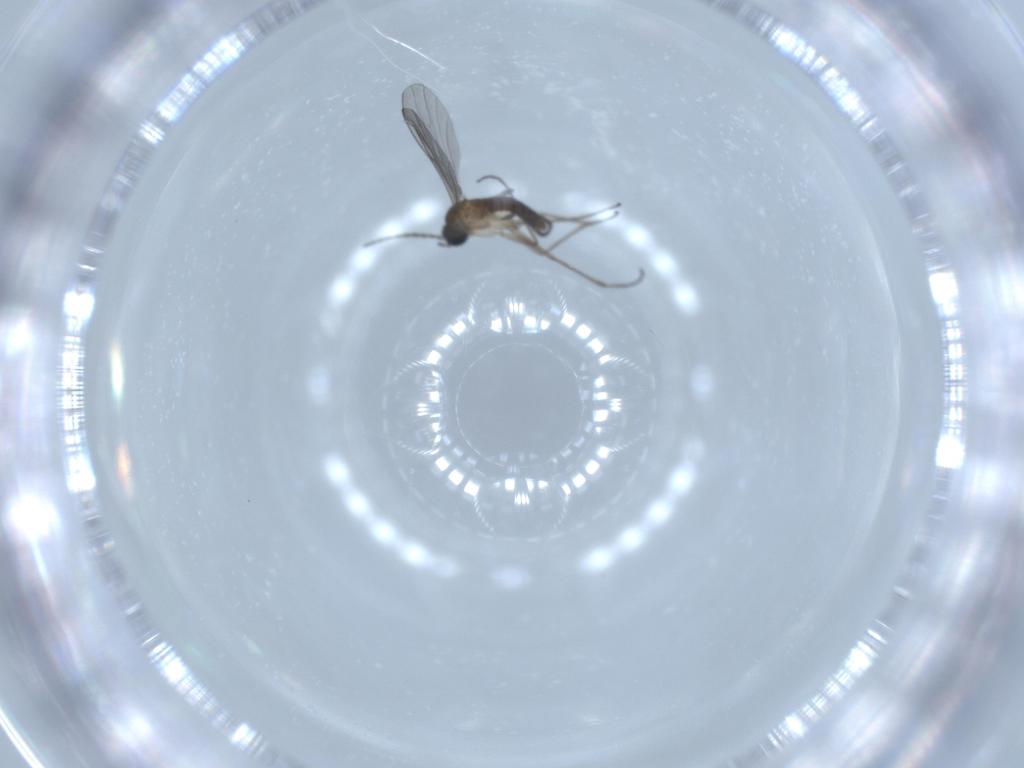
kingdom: Animalia
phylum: Arthropoda
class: Insecta
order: Diptera
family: Sciaridae
